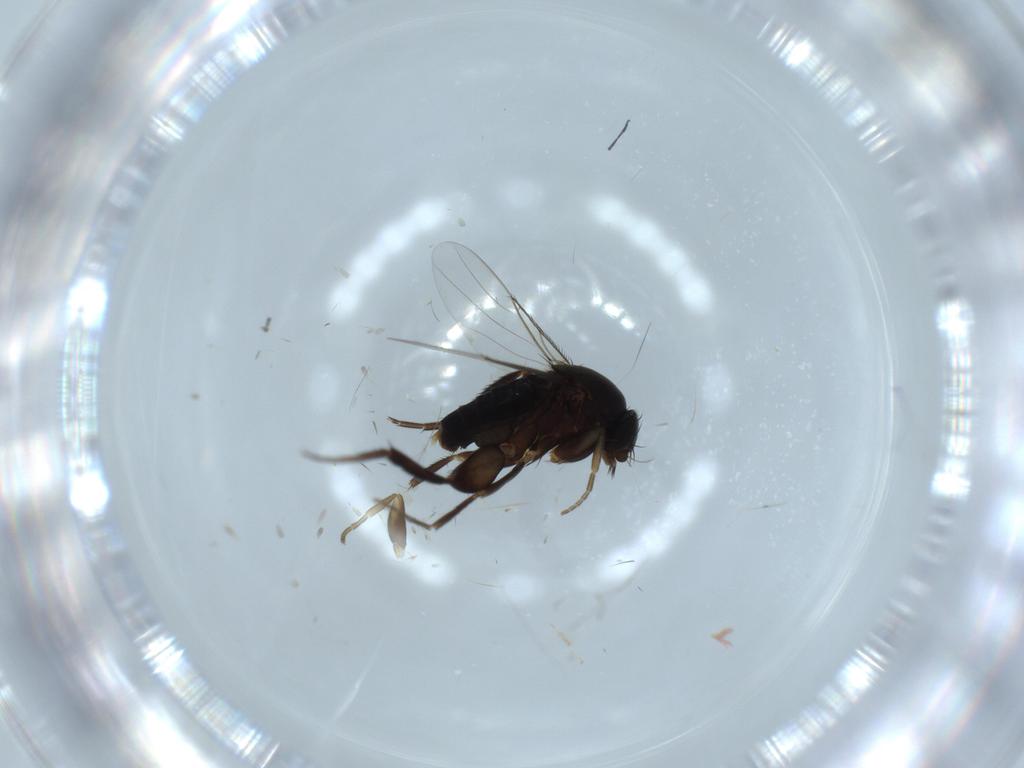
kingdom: Animalia
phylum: Arthropoda
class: Insecta
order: Diptera
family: Phoridae
